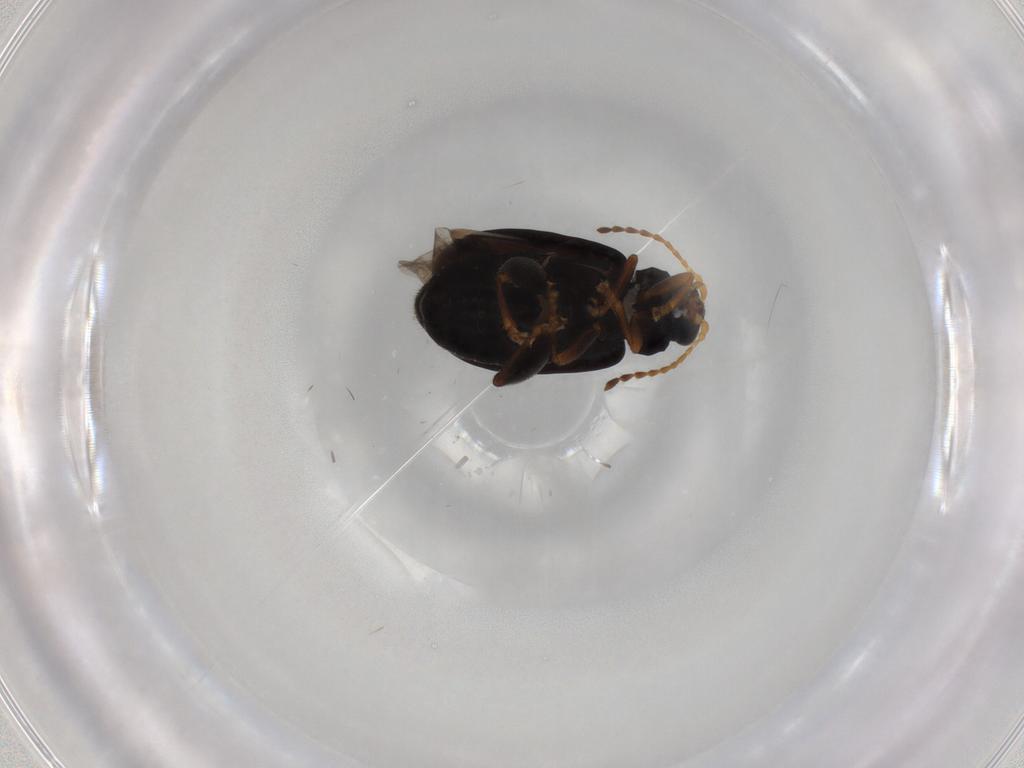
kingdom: Animalia
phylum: Arthropoda
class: Insecta
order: Coleoptera
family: Chrysomelidae
